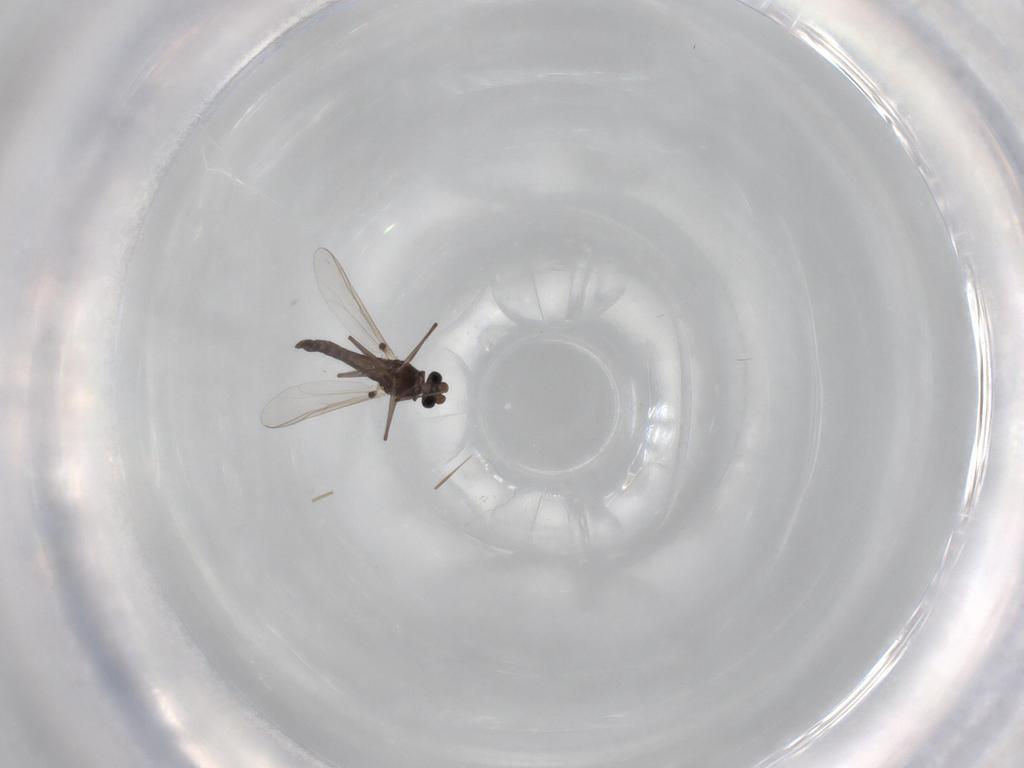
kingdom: Animalia
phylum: Arthropoda
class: Insecta
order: Diptera
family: Chironomidae
